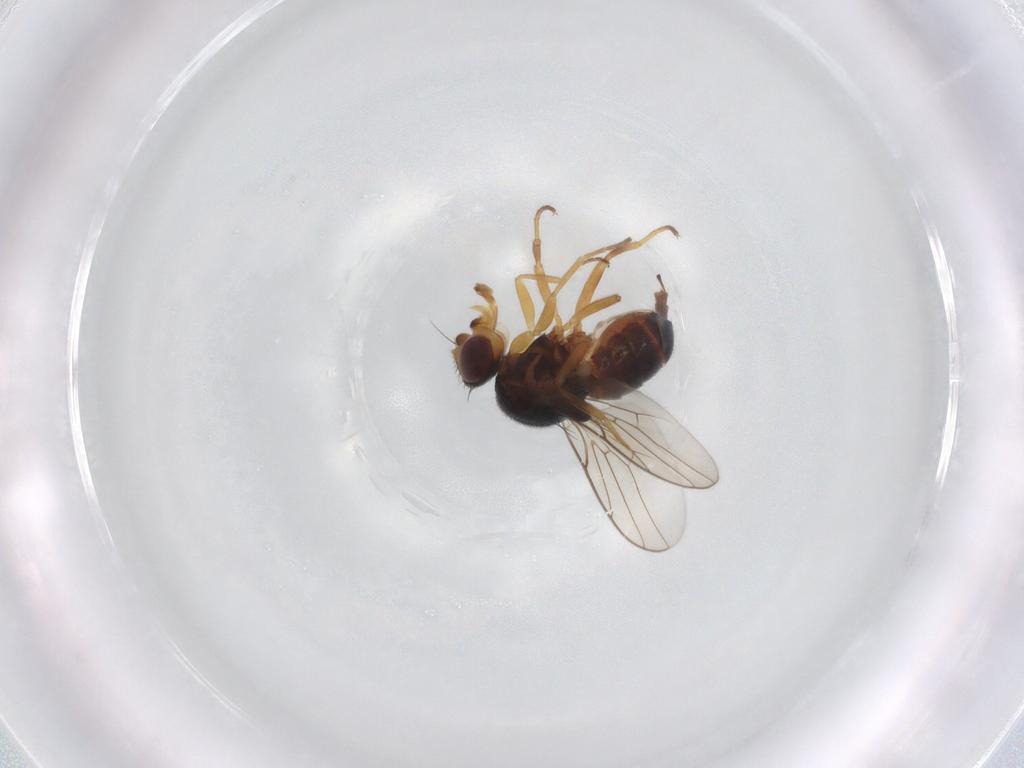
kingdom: Animalia
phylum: Arthropoda
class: Insecta
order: Diptera
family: Chloropidae
